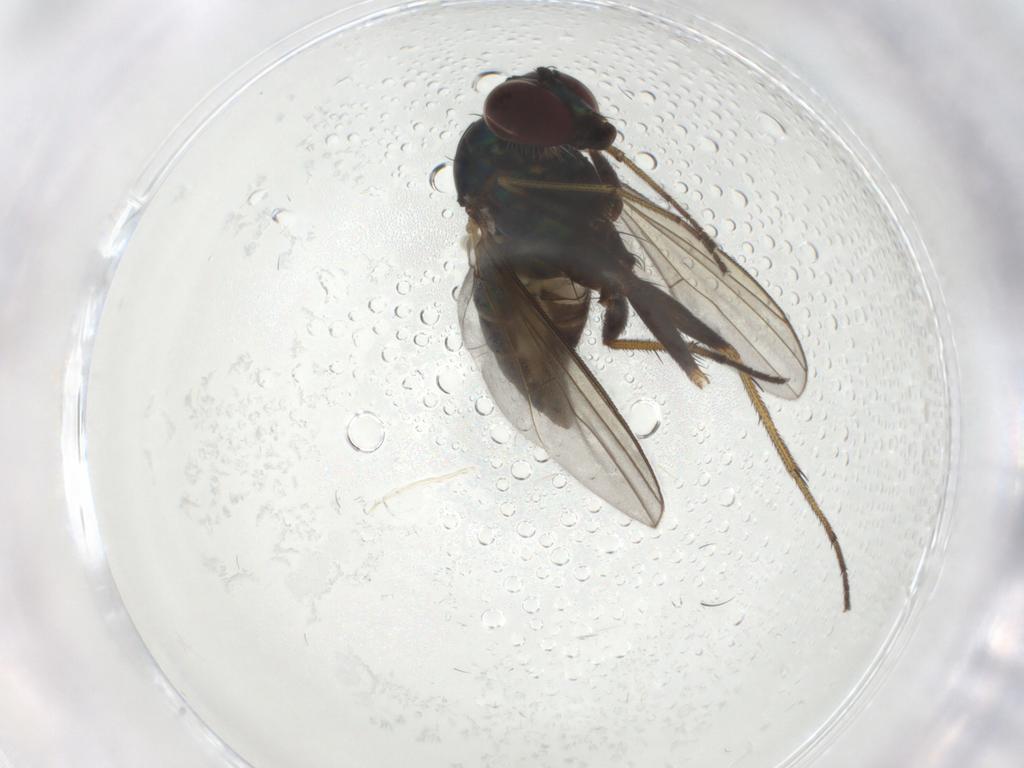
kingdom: Animalia
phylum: Arthropoda
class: Insecta
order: Diptera
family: Dolichopodidae
